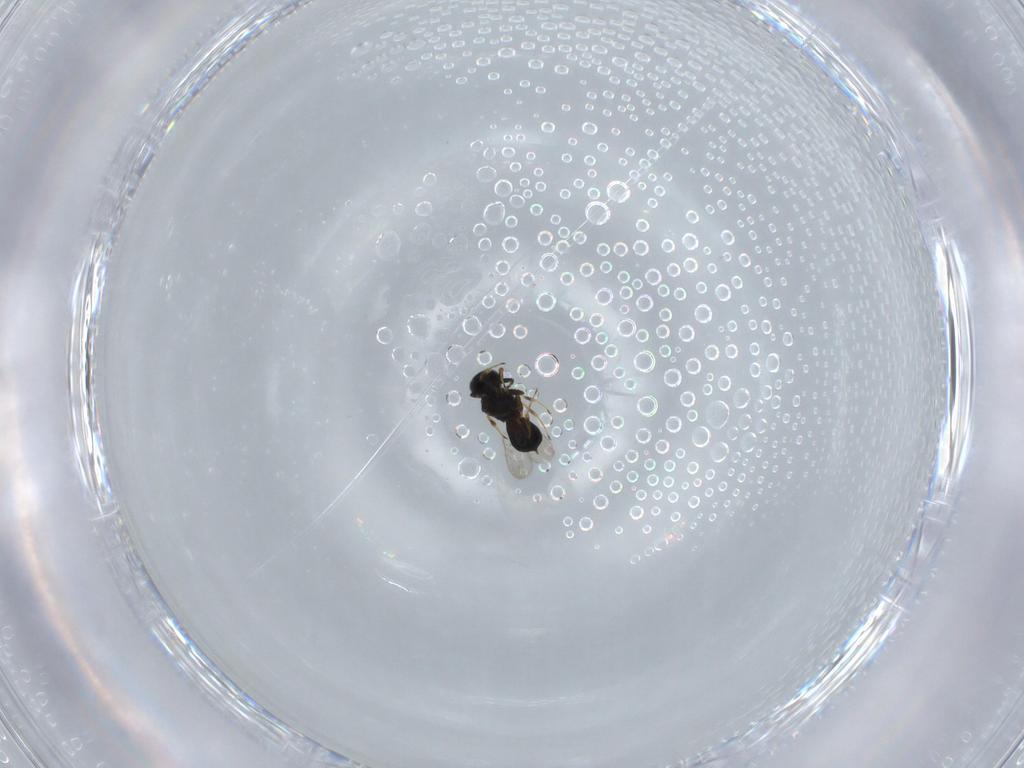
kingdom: Animalia
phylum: Arthropoda
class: Insecta
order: Hymenoptera
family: Scelionidae
